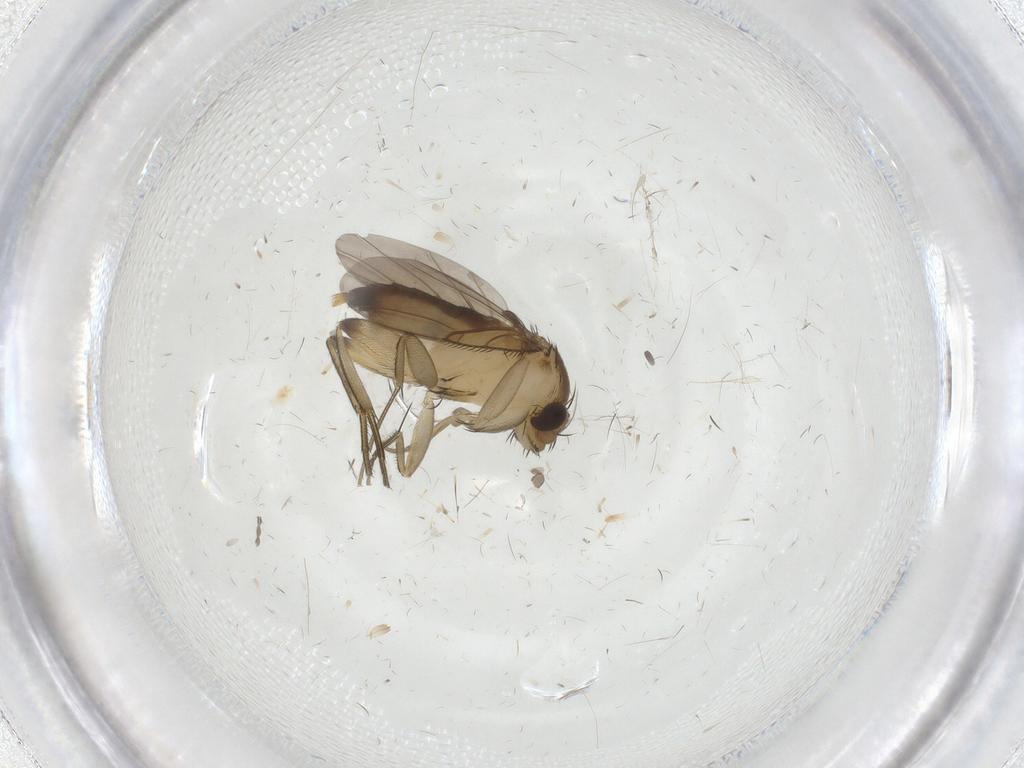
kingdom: Animalia
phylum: Arthropoda
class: Insecta
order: Diptera
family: Phoridae
